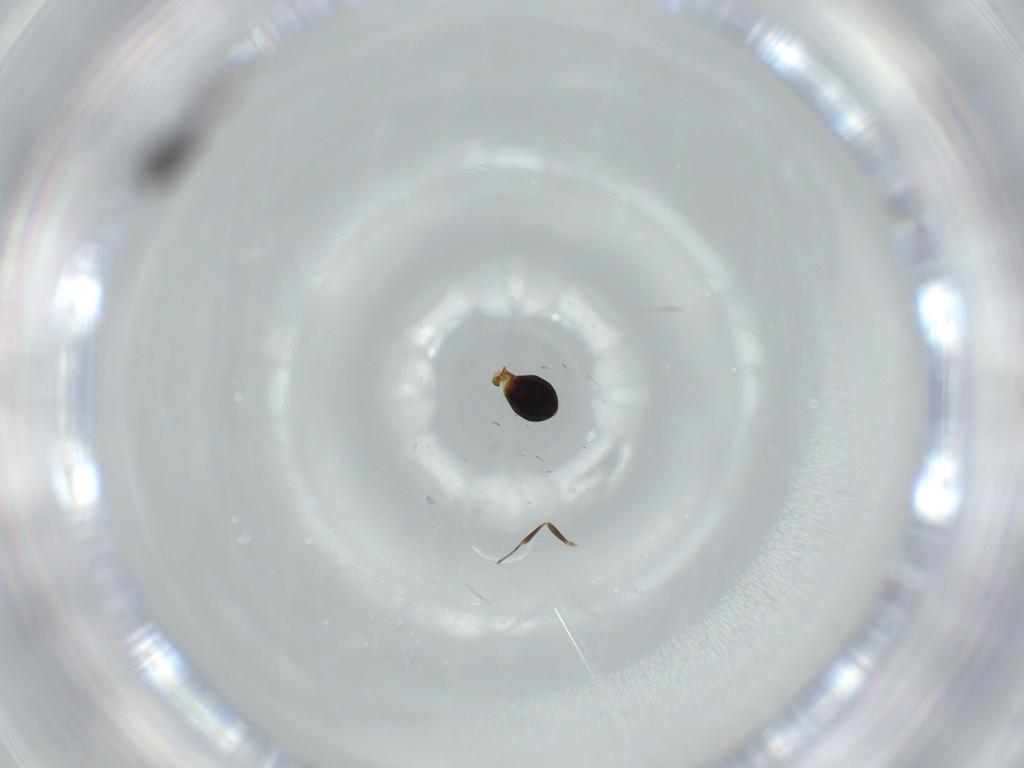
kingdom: Animalia
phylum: Arthropoda
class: Insecta
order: Hymenoptera
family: Scelionidae
